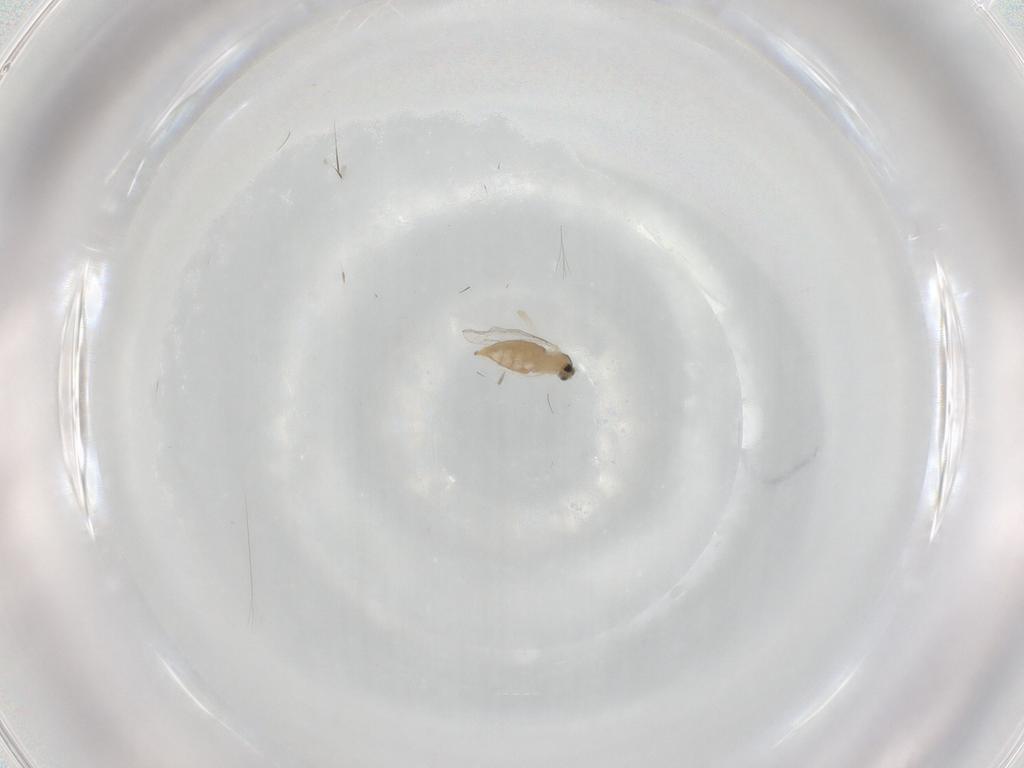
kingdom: Animalia
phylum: Arthropoda
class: Insecta
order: Diptera
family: Cecidomyiidae
